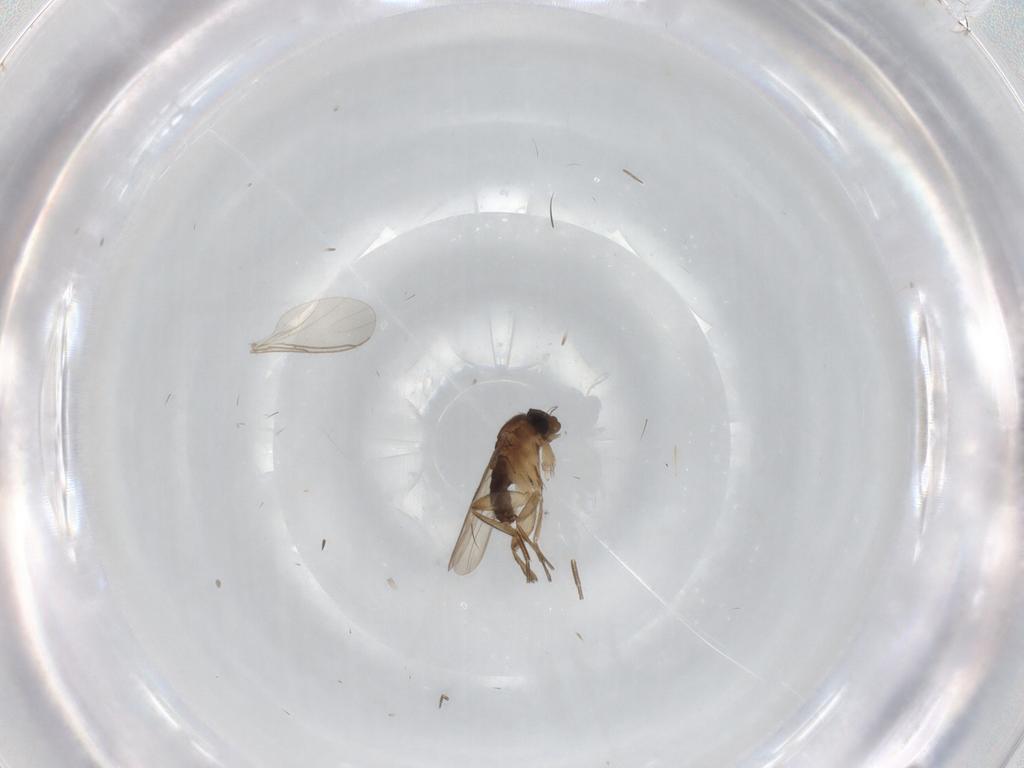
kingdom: Animalia
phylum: Arthropoda
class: Insecta
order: Diptera
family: Phoridae
